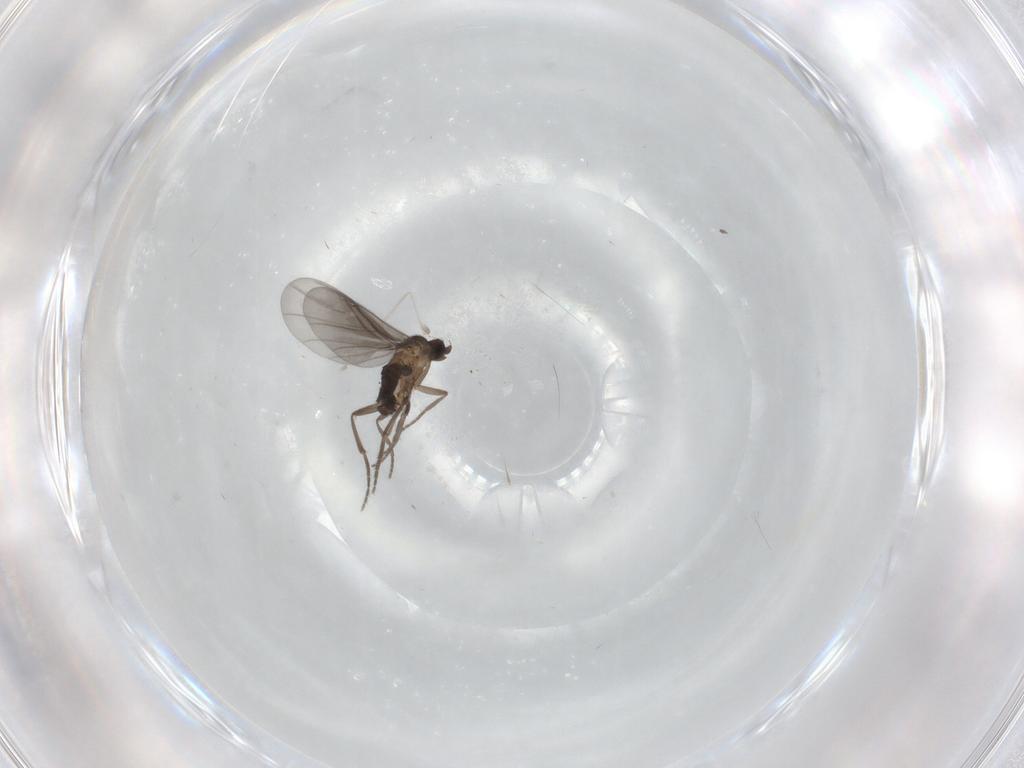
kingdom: Animalia
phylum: Arthropoda
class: Insecta
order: Diptera
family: Phoridae
